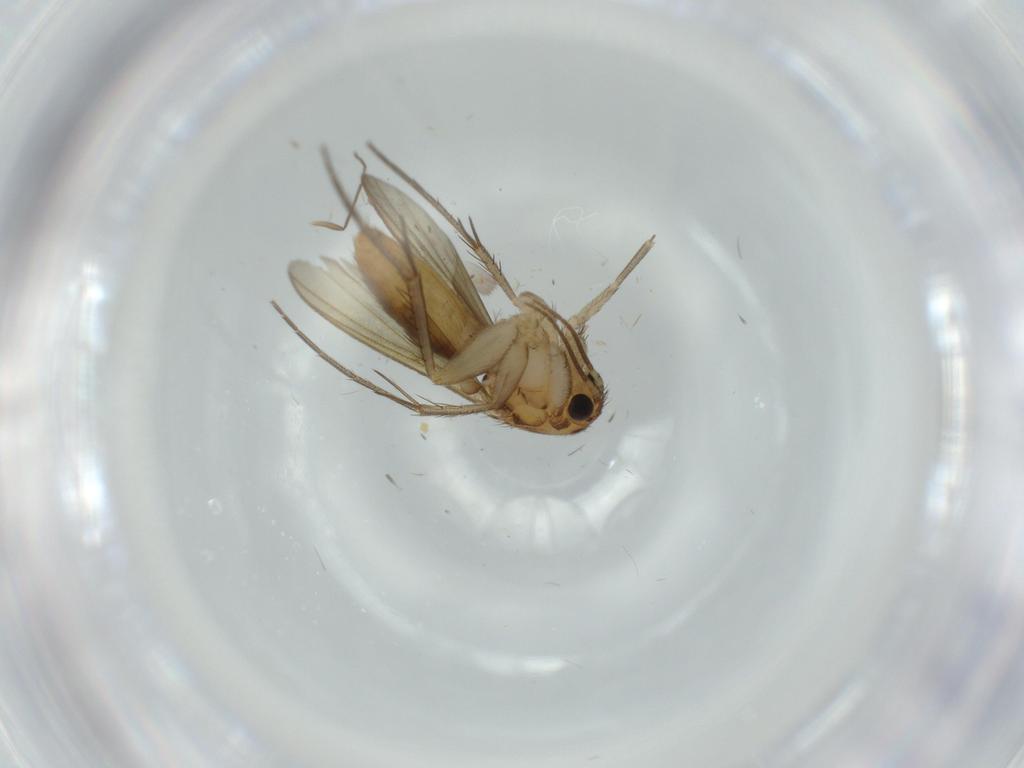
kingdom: Animalia
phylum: Arthropoda
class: Insecta
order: Diptera
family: Mycetophilidae
